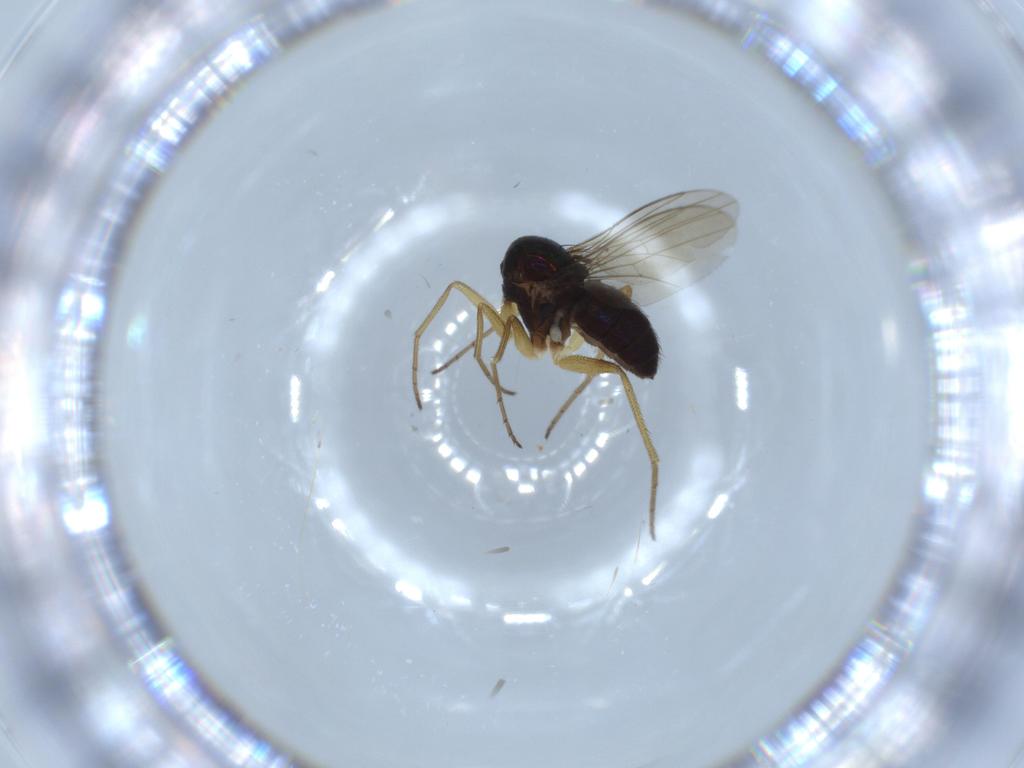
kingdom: Animalia
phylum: Arthropoda
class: Insecta
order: Diptera
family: Dolichopodidae
